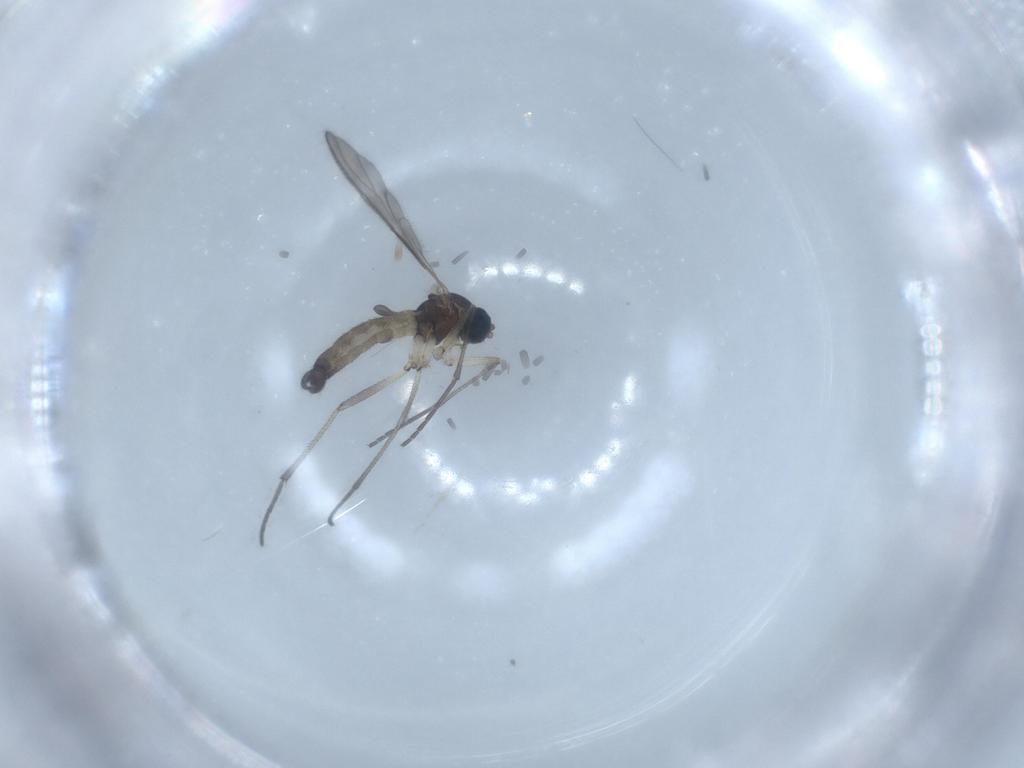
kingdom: Animalia
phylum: Arthropoda
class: Insecta
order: Diptera
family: Sciaridae
